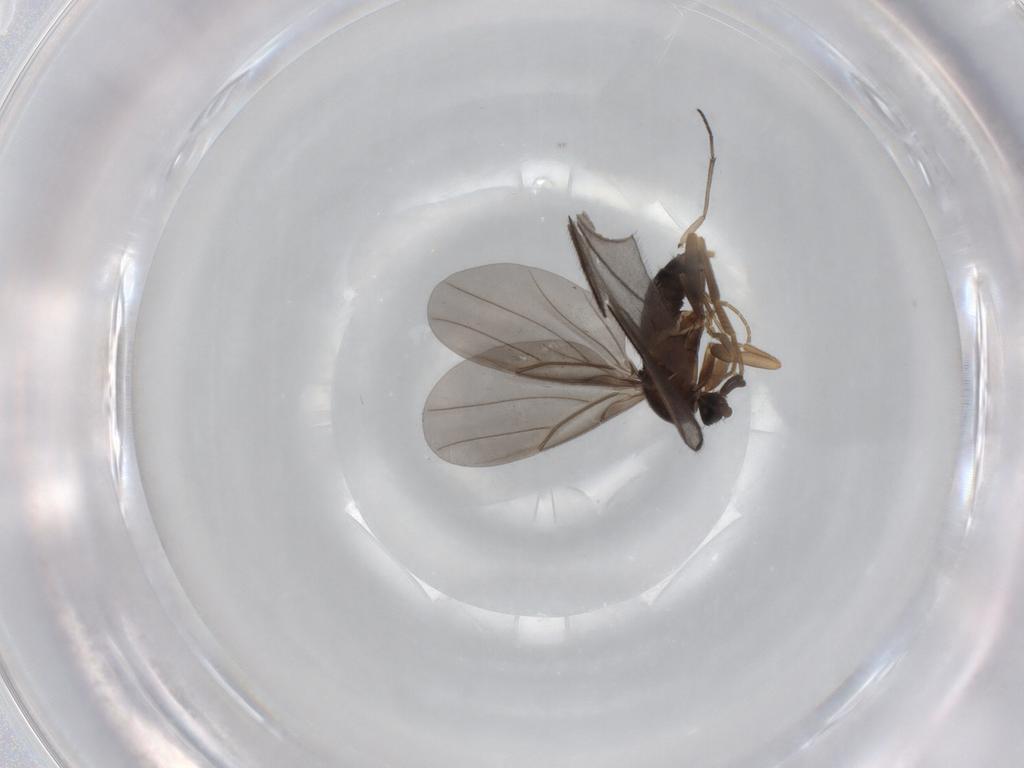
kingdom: Animalia
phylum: Arthropoda
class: Insecta
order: Diptera
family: Phoridae
